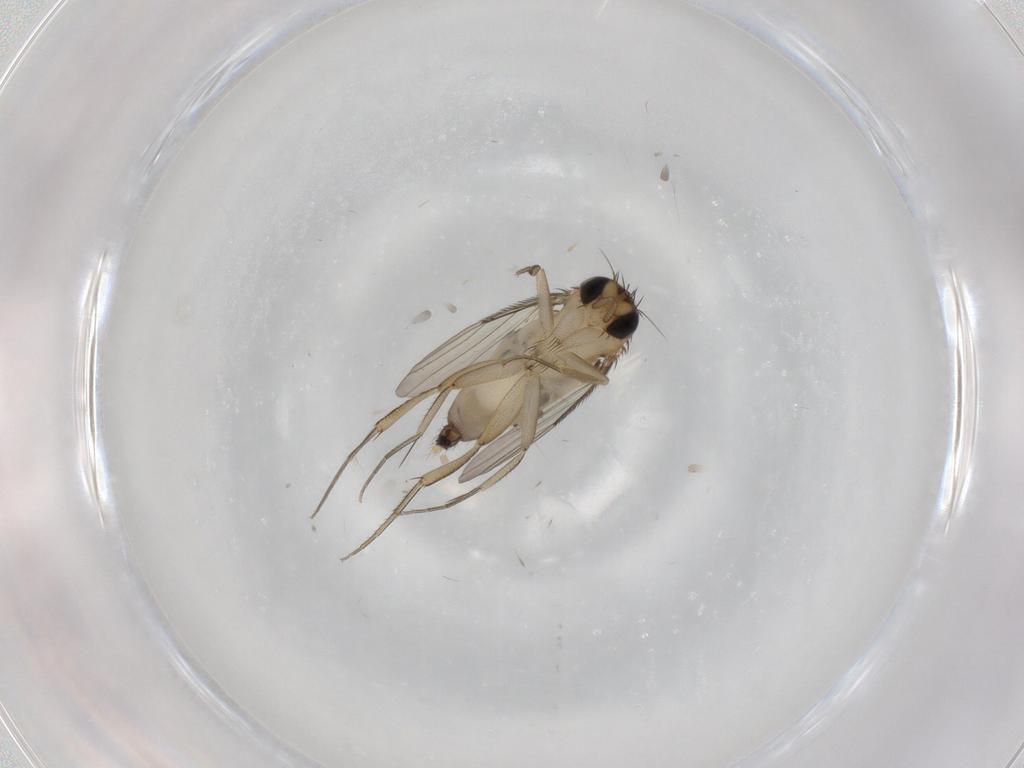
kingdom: Animalia
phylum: Arthropoda
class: Insecta
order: Diptera
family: Phoridae
